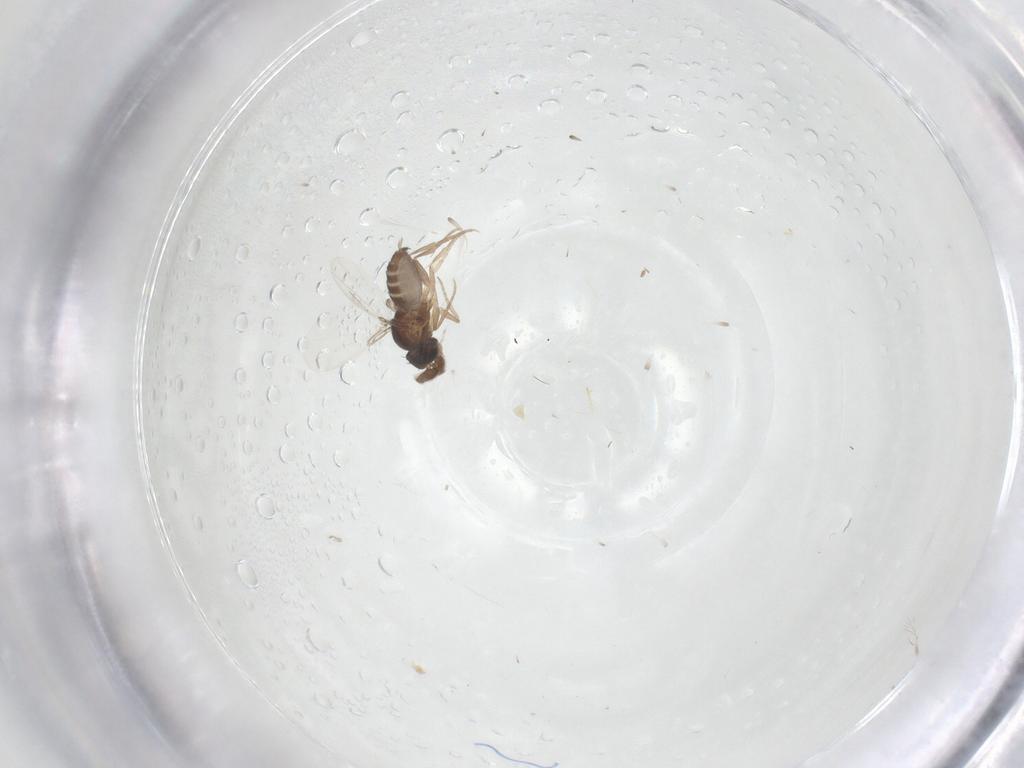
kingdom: Animalia
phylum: Arthropoda
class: Insecta
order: Diptera
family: Phoridae
